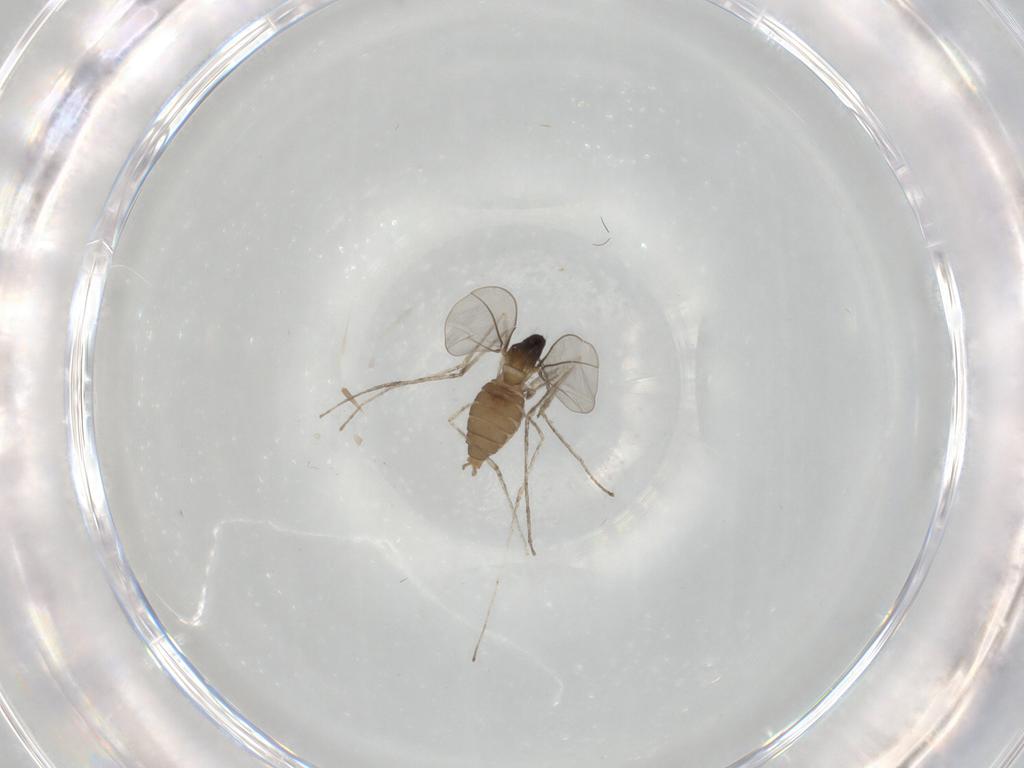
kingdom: Animalia
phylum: Arthropoda
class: Insecta
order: Diptera
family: Cecidomyiidae
